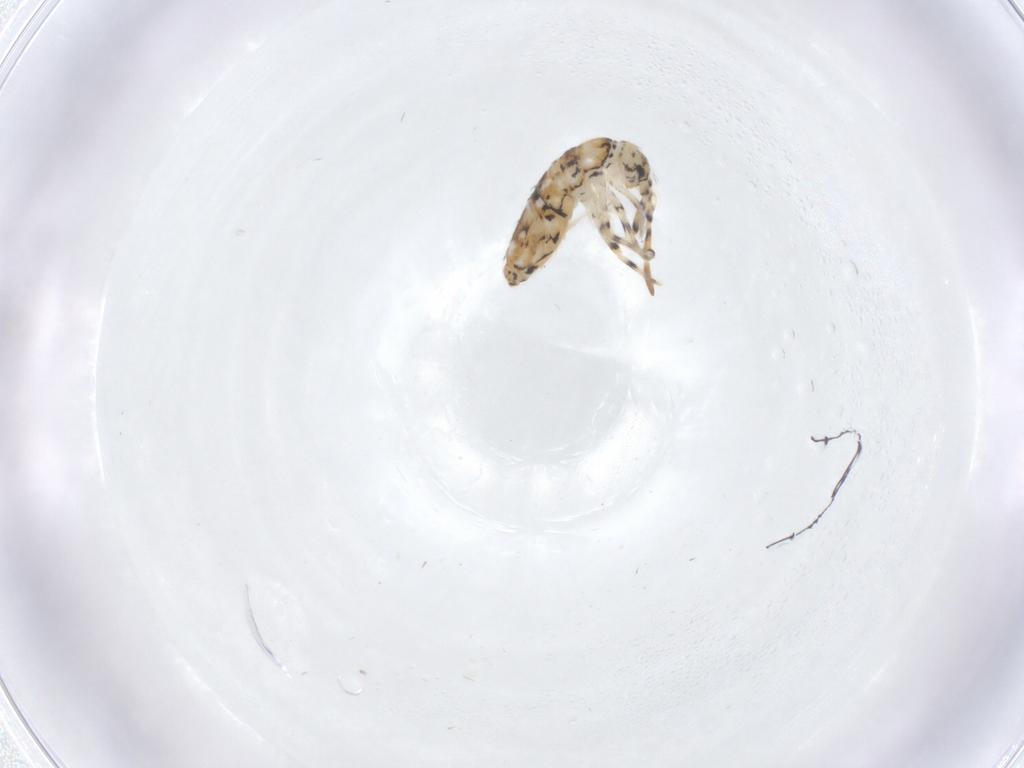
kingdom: Animalia
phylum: Arthropoda
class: Collembola
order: Entomobryomorpha
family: Entomobryidae
